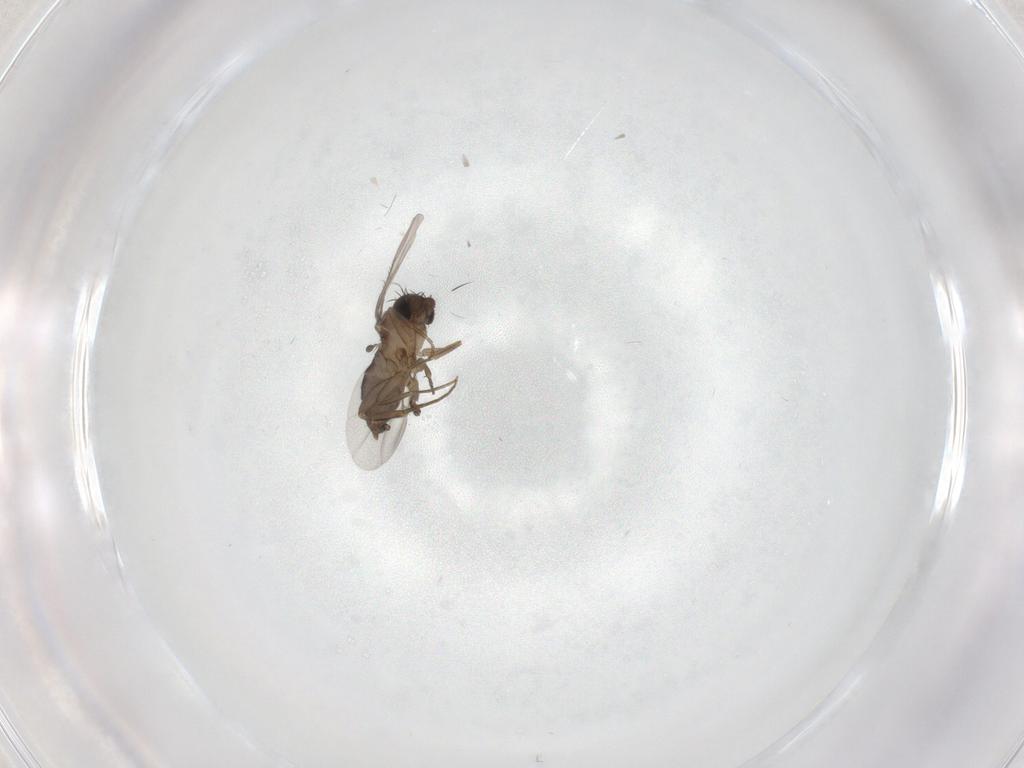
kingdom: Animalia
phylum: Arthropoda
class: Insecta
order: Diptera
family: Phoridae
